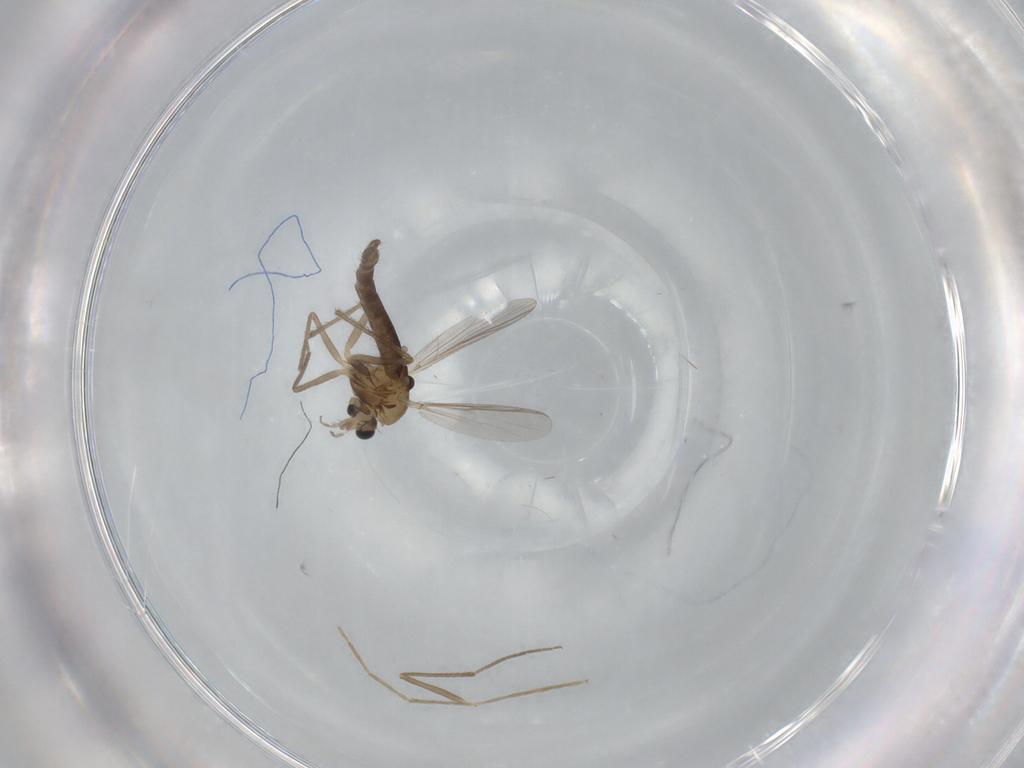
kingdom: Animalia
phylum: Arthropoda
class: Insecta
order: Diptera
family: Chironomidae
